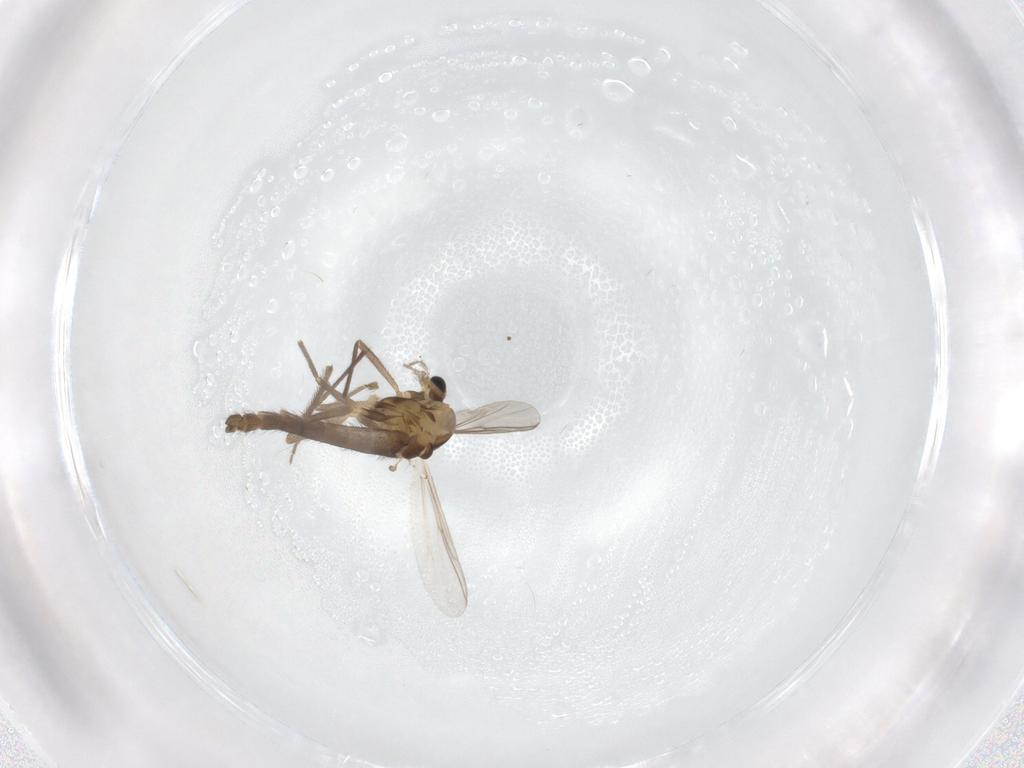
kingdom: Animalia
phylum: Arthropoda
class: Insecta
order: Diptera
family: Chironomidae
